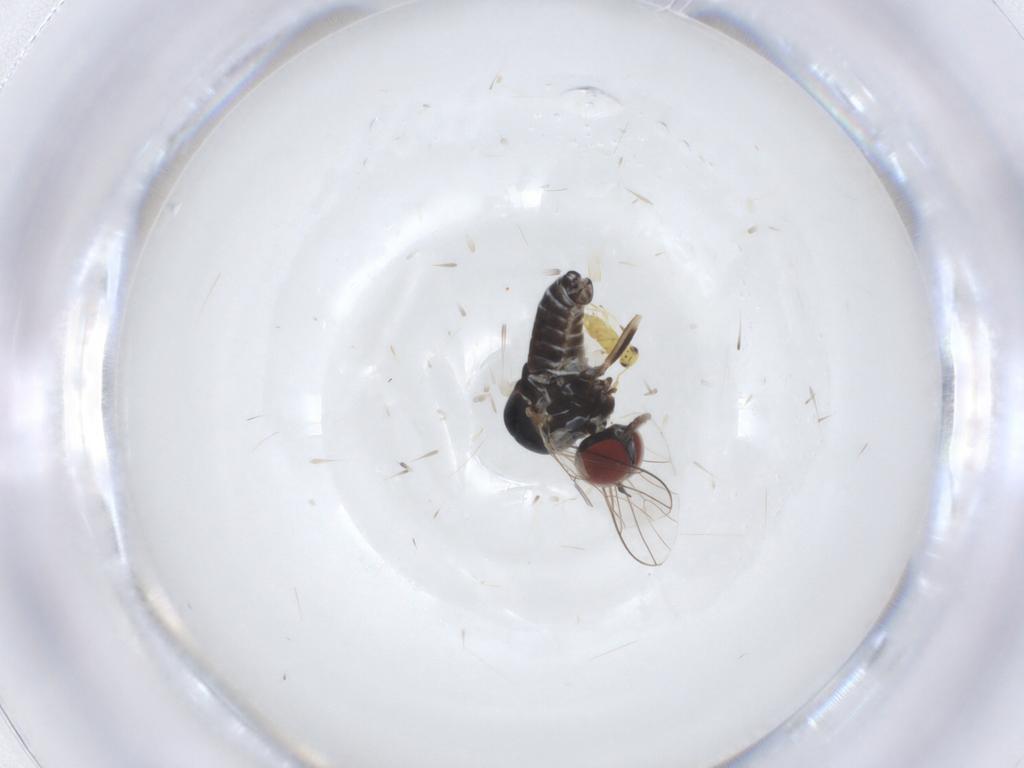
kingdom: Animalia
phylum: Arthropoda
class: Insecta
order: Diptera
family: Bombyliidae
